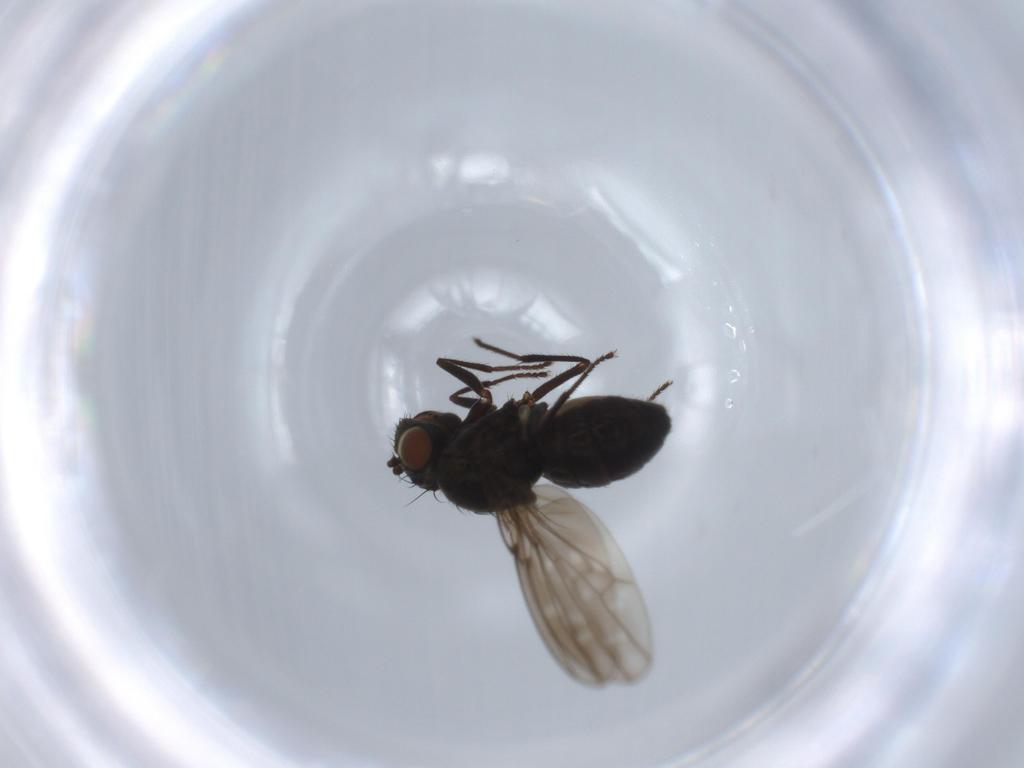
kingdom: Animalia
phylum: Arthropoda
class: Insecta
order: Diptera
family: Ephydridae
